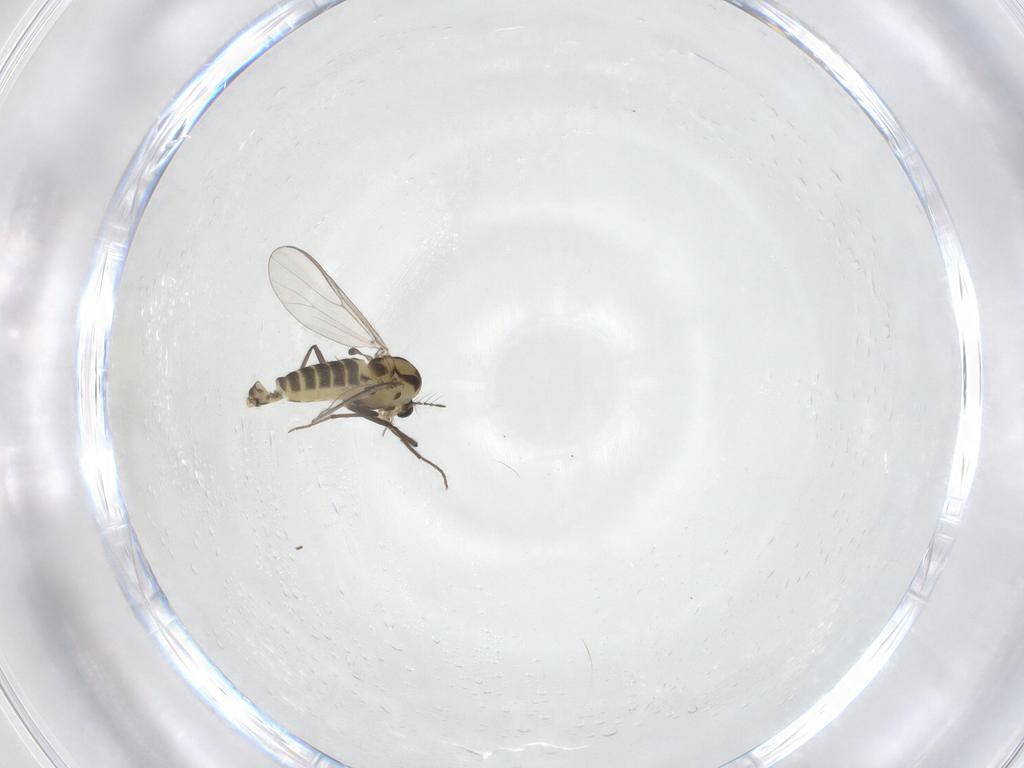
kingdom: Animalia
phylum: Arthropoda
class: Insecta
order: Diptera
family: Chironomidae
